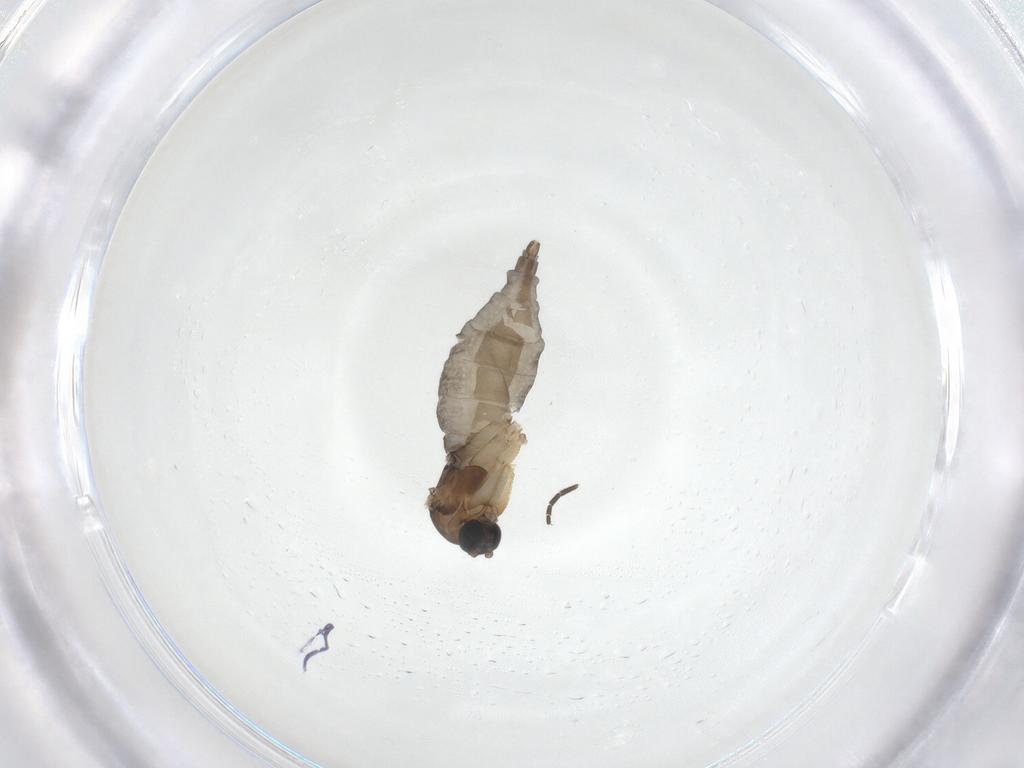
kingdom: Animalia
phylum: Arthropoda
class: Insecta
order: Diptera
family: Sciaridae
